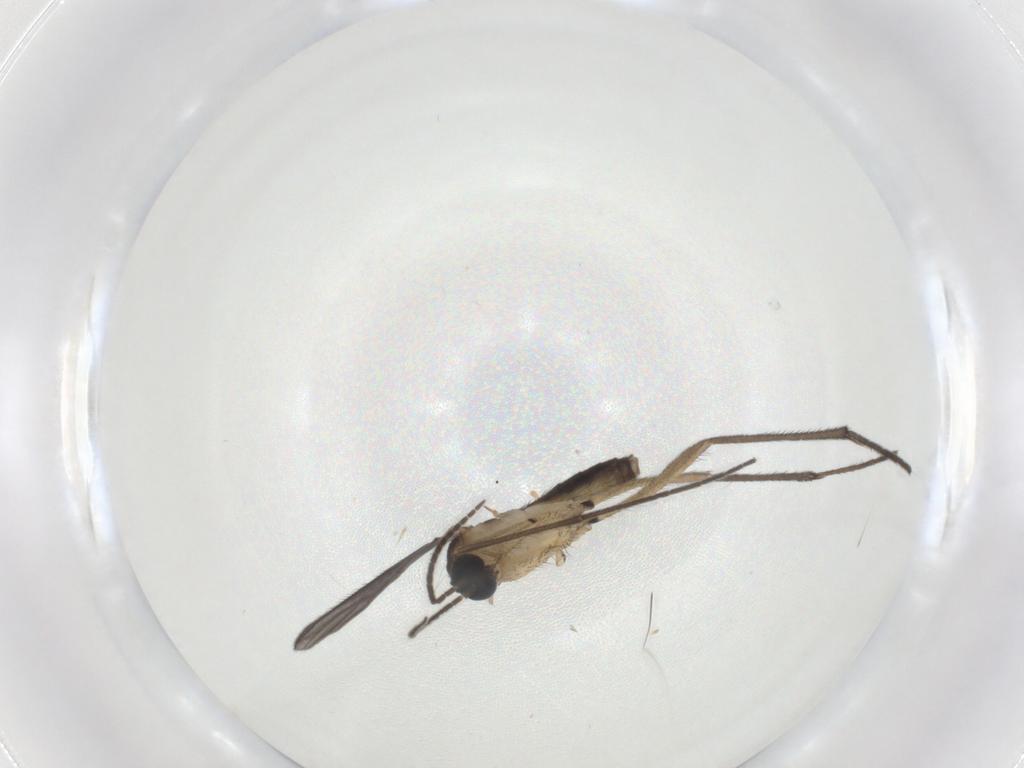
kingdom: Animalia
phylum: Arthropoda
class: Insecta
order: Diptera
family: Sciaridae
